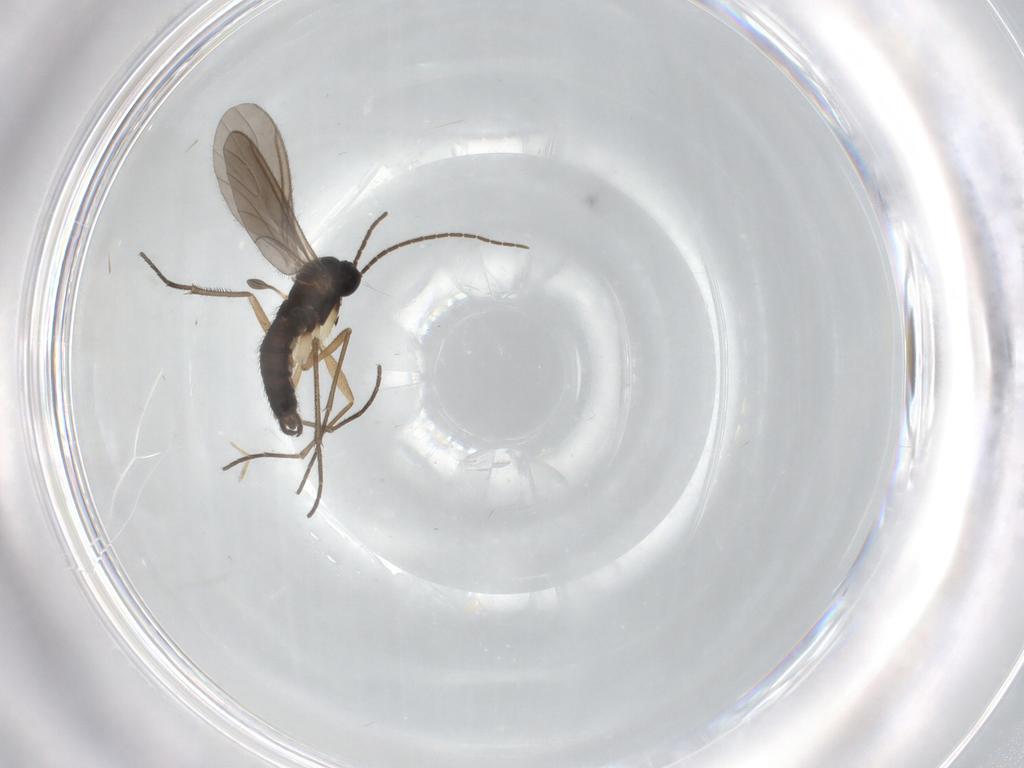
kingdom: Animalia
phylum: Arthropoda
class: Insecta
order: Diptera
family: Sciaridae
